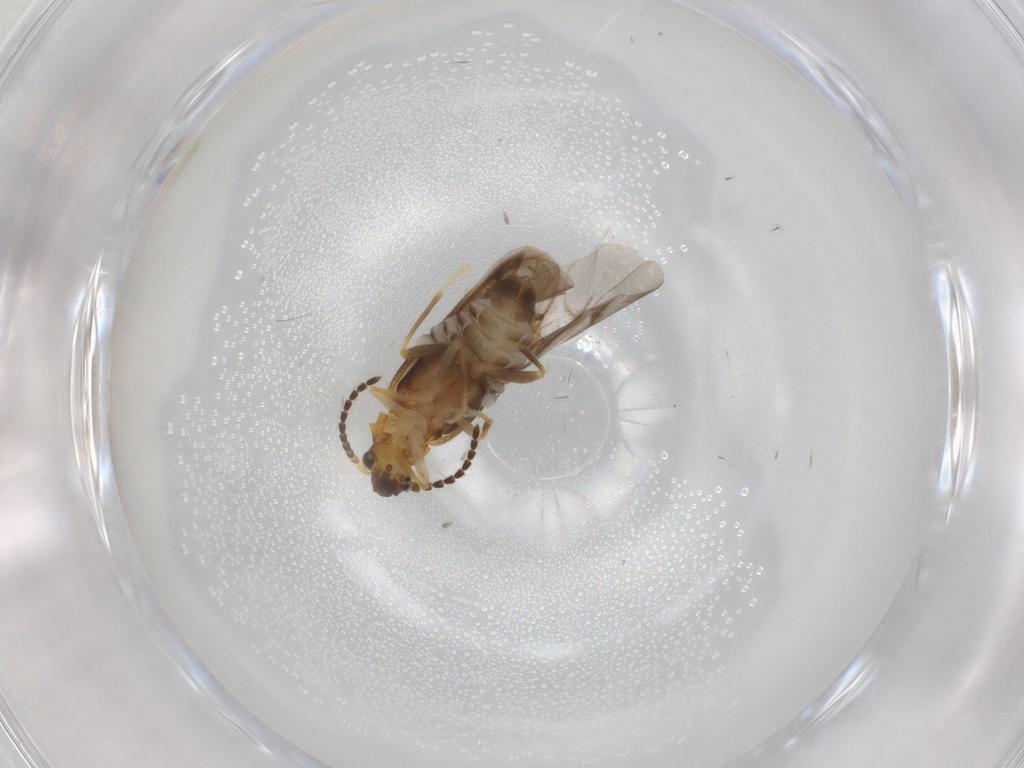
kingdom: Animalia
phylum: Arthropoda
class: Insecta
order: Coleoptera
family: Cantharidae
